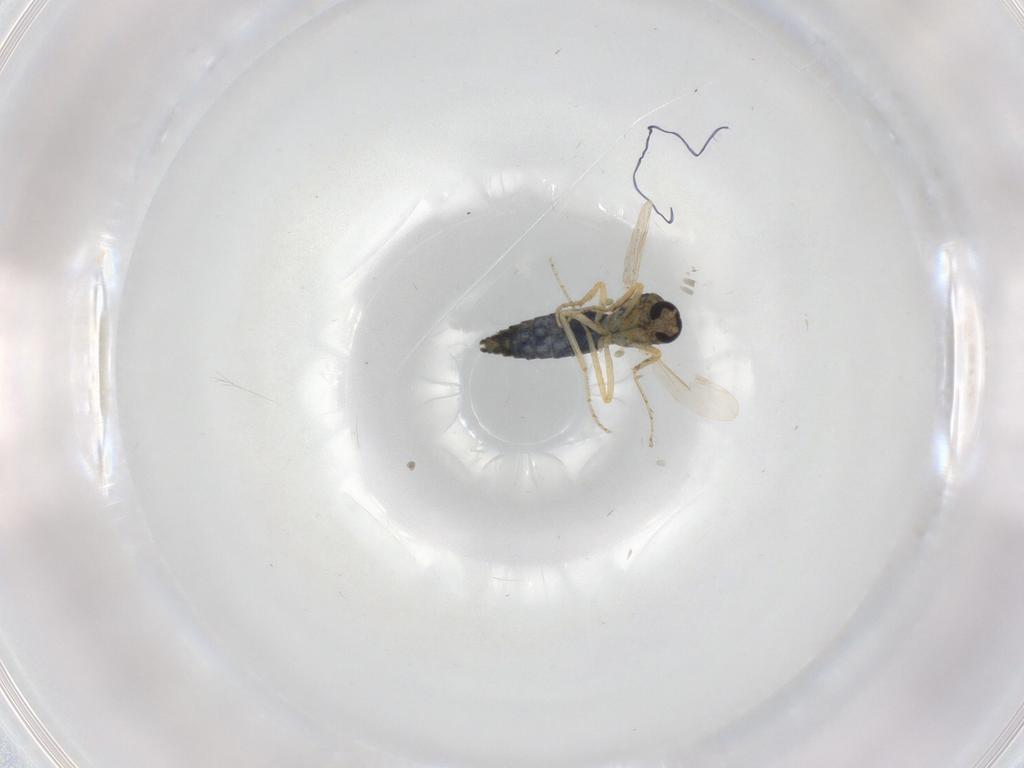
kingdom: Animalia
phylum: Arthropoda
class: Insecta
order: Diptera
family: Ceratopogonidae
